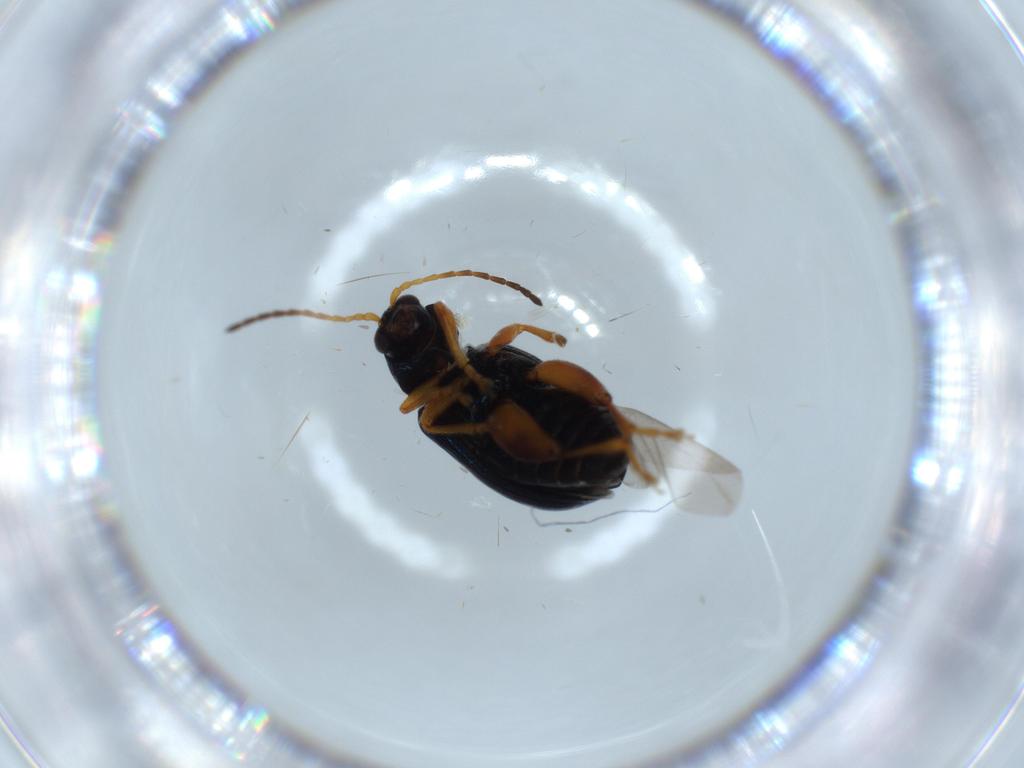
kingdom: Animalia
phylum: Arthropoda
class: Insecta
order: Coleoptera
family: Chrysomelidae
